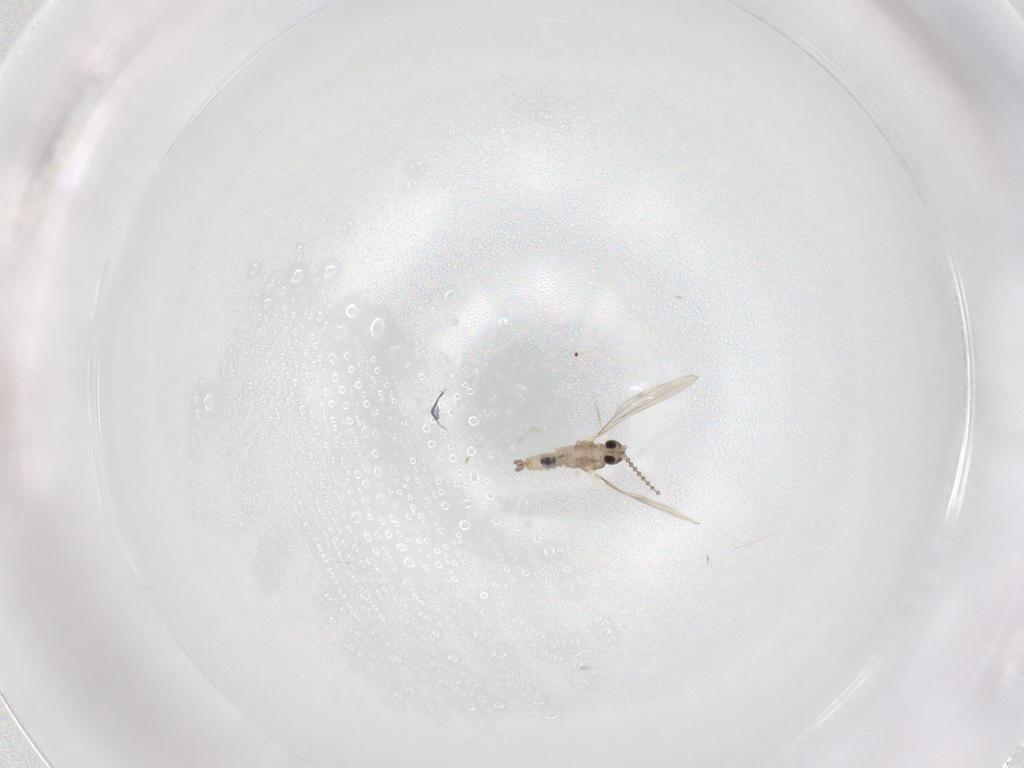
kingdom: Animalia
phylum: Arthropoda
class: Insecta
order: Diptera
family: Cecidomyiidae
